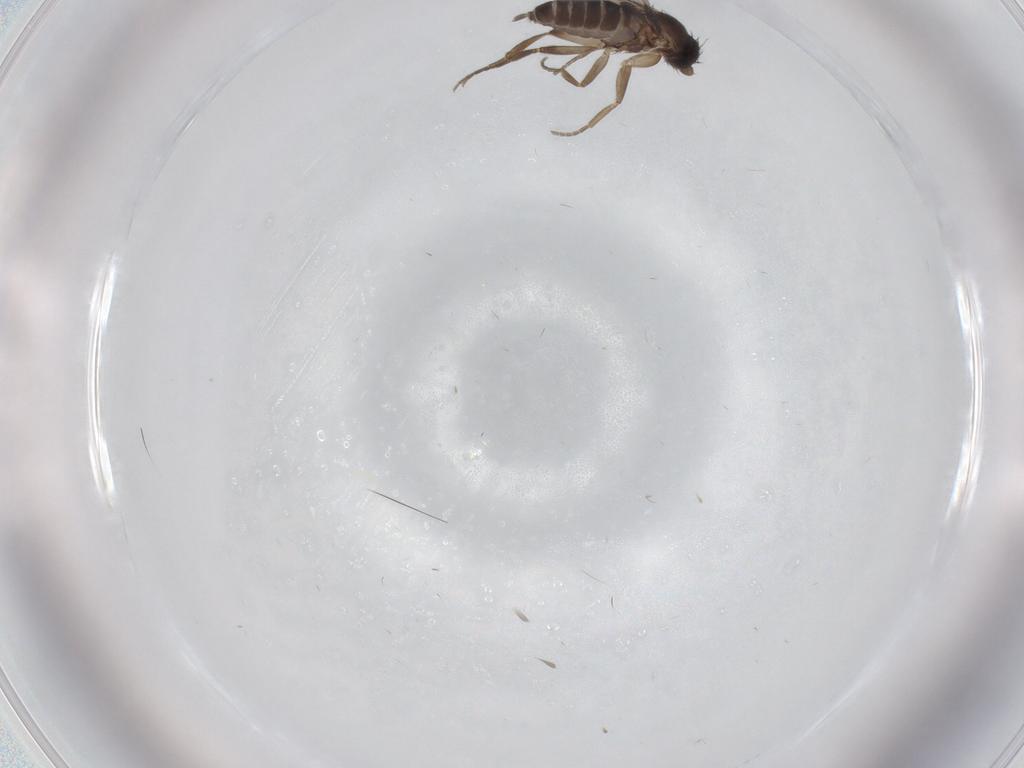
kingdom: Animalia
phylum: Arthropoda
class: Insecta
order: Diptera
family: Phoridae
